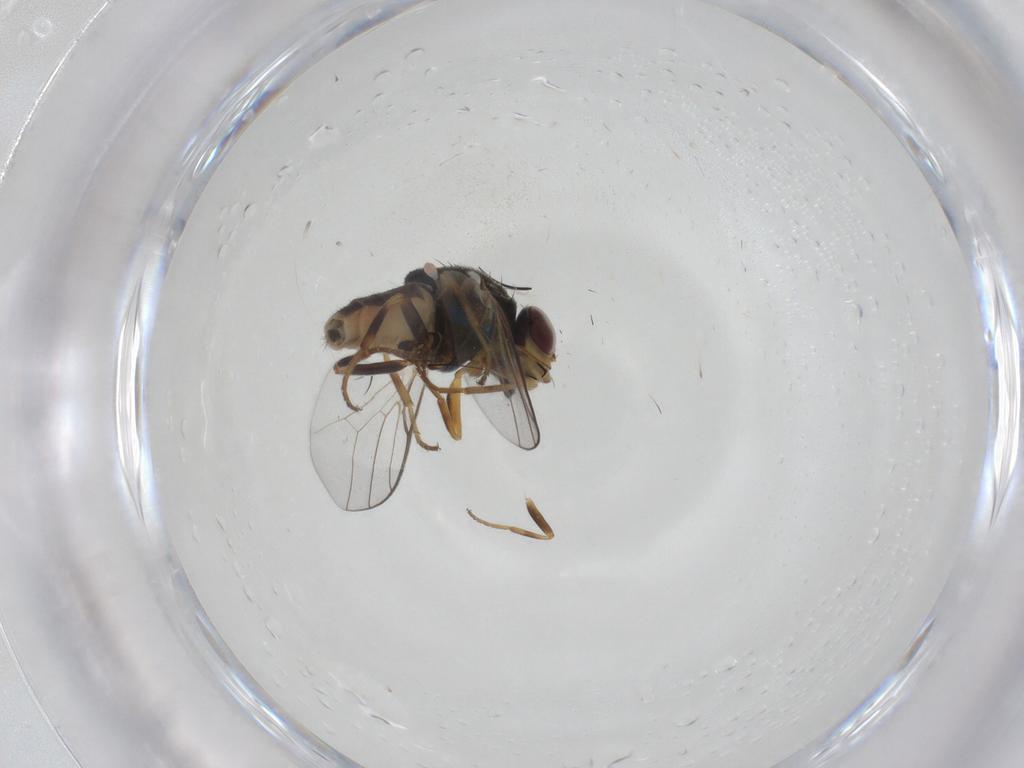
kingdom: Animalia
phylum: Arthropoda
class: Insecta
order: Diptera
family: Chloropidae
